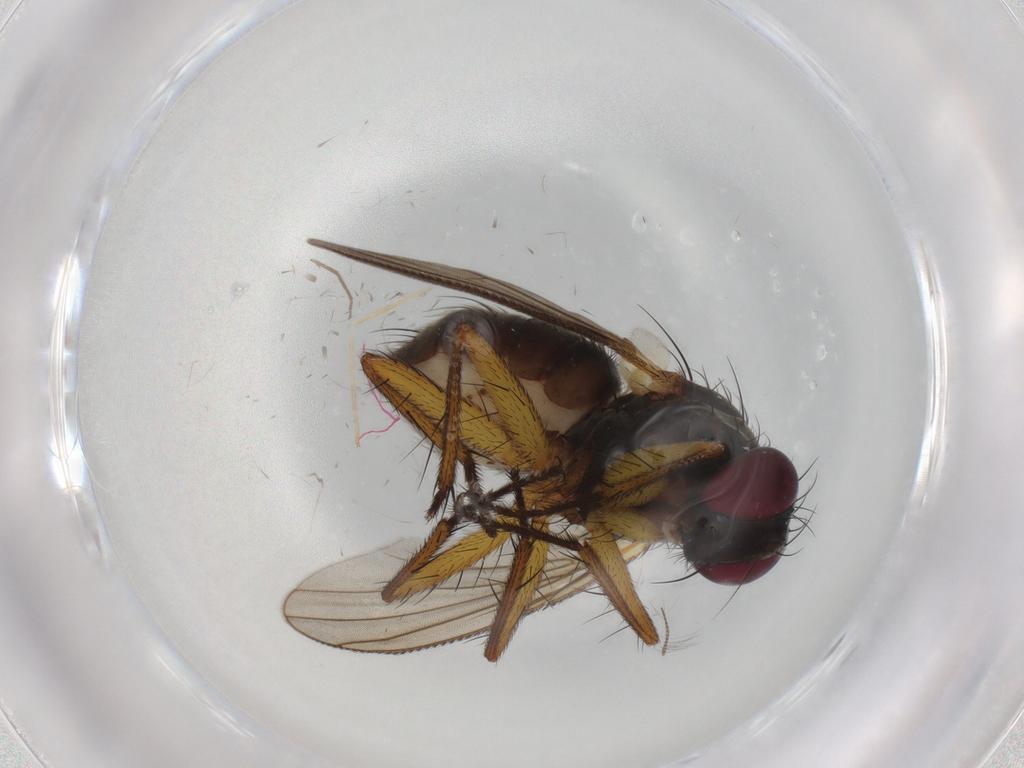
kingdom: Animalia
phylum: Arthropoda
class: Insecta
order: Diptera
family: Muscidae
